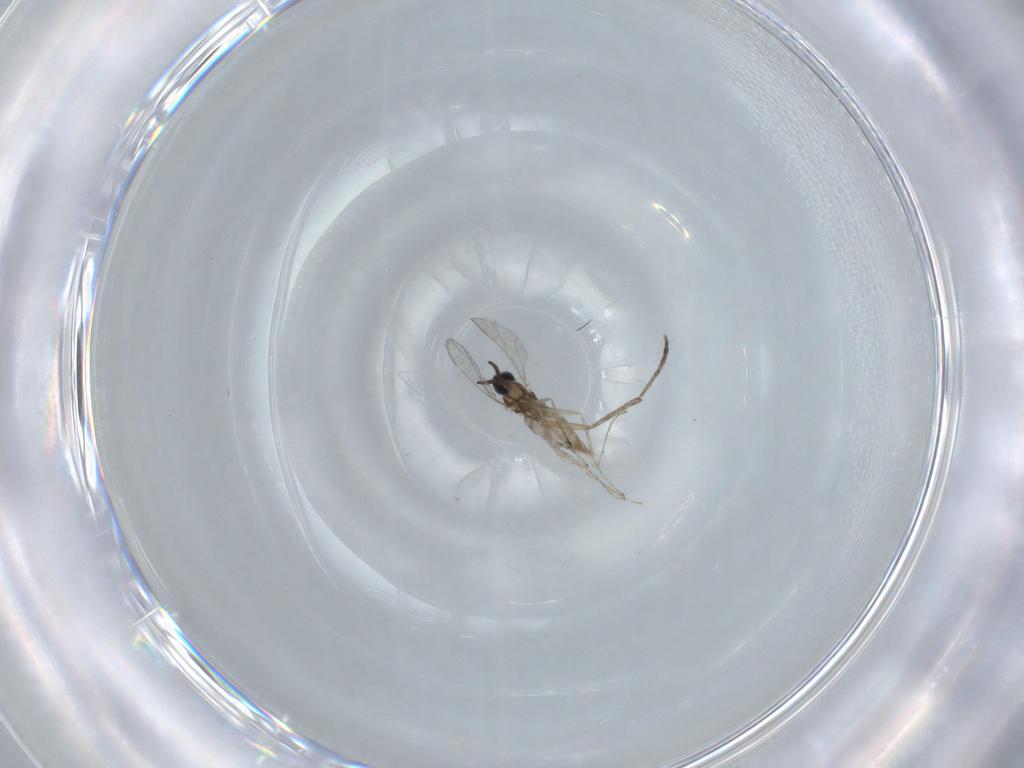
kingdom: Animalia
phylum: Arthropoda
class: Insecta
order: Diptera
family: Cecidomyiidae
